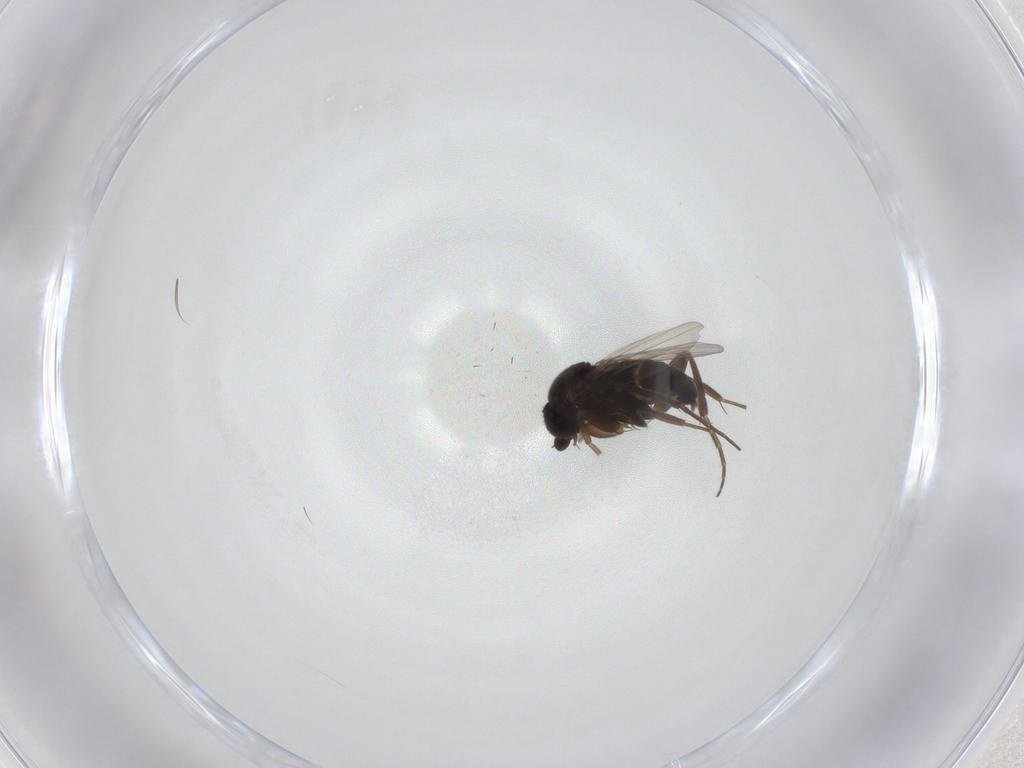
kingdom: Animalia
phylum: Arthropoda
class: Insecta
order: Diptera
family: Phoridae
